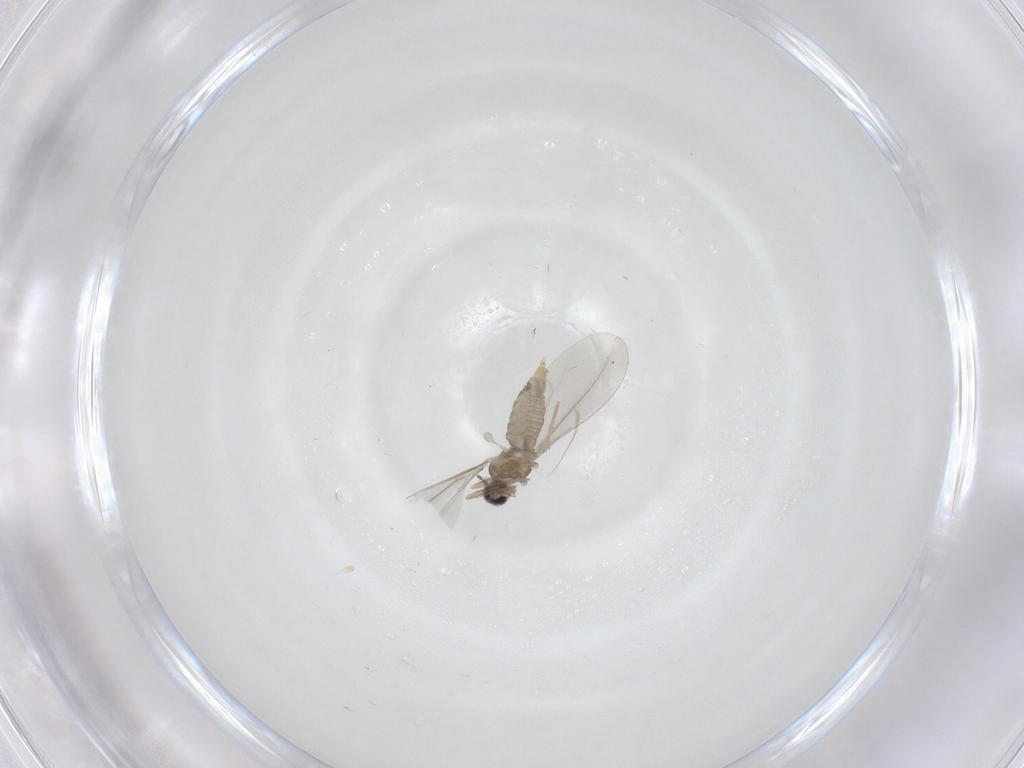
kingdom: Animalia
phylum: Arthropoda
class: Insecta
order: Diptera
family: Cecidomyiidae
